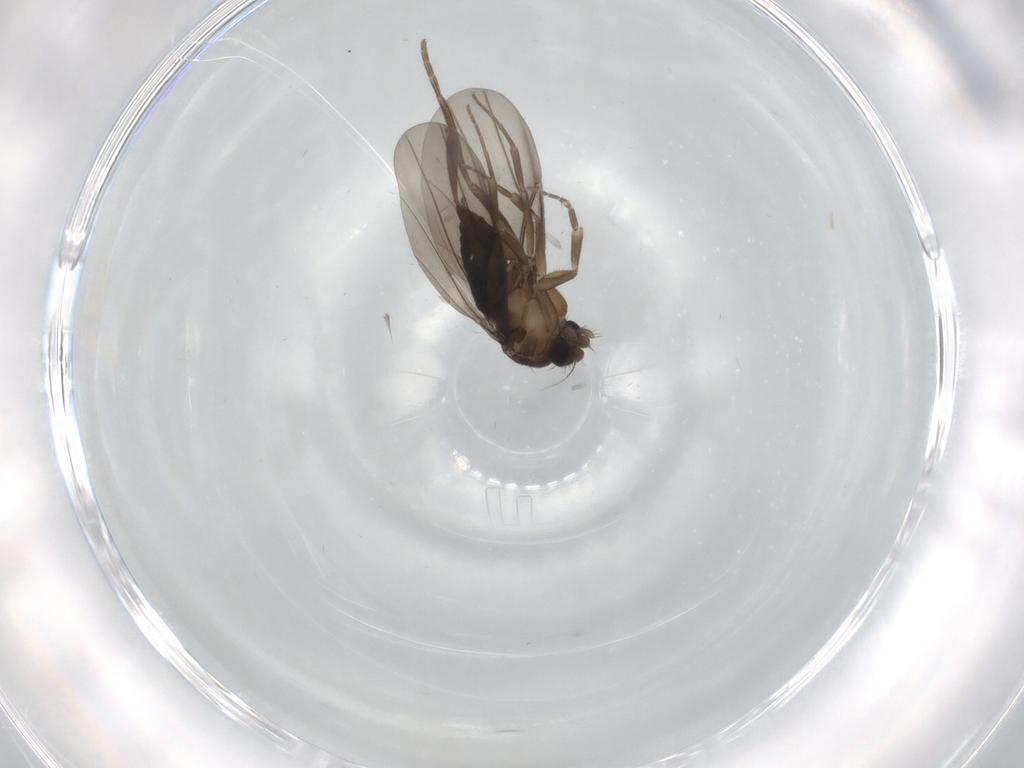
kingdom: Animalia
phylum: Arthropoda
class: Insecta
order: Diptera
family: Phoridae
